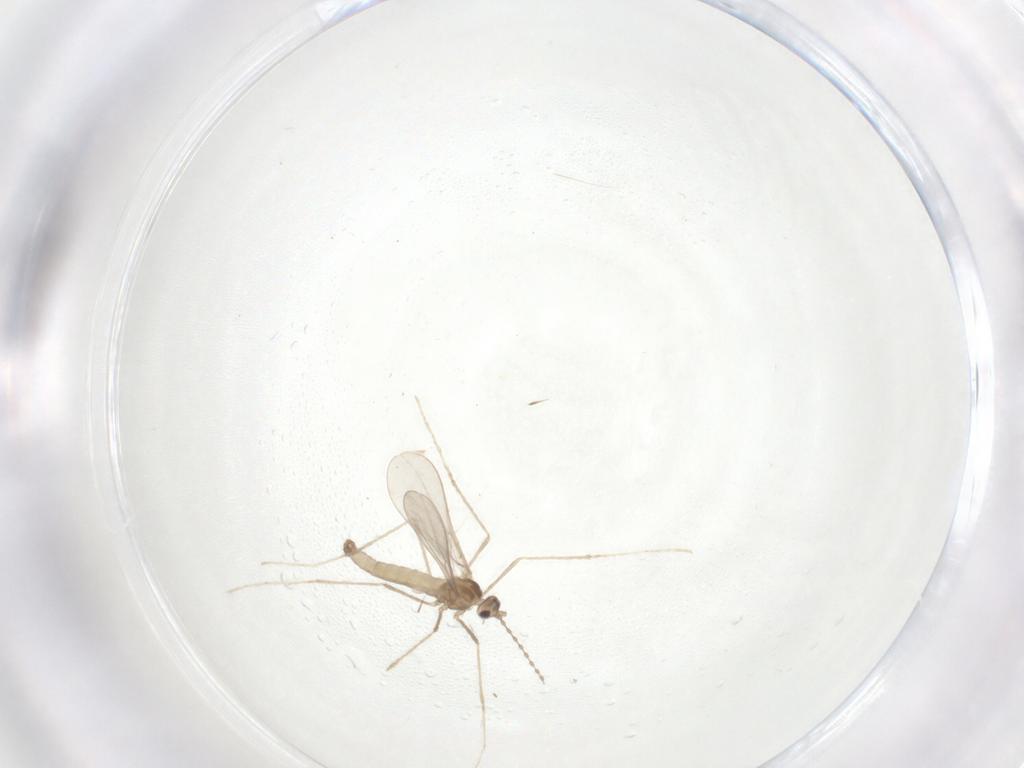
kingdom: Animalia
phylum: Arthropoda
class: Insecta
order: Diptera
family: Cecidomyiidae
